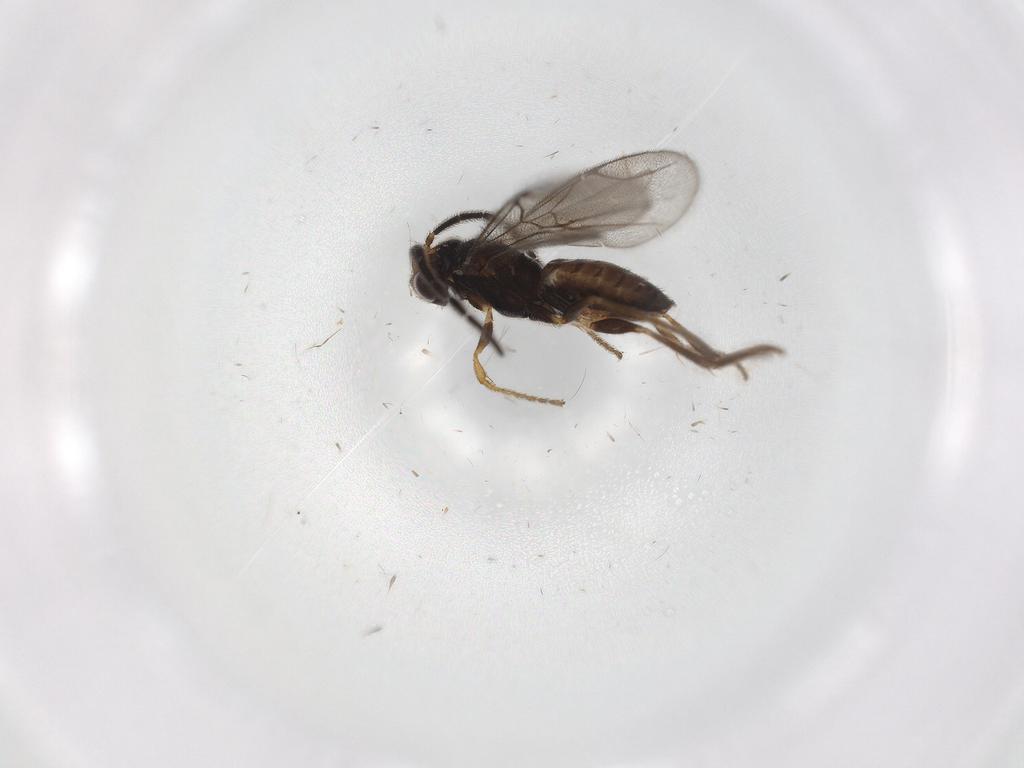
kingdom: Animalia
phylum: Arthropoda
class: Insecta
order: Hymenoptera
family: Dryinidae
